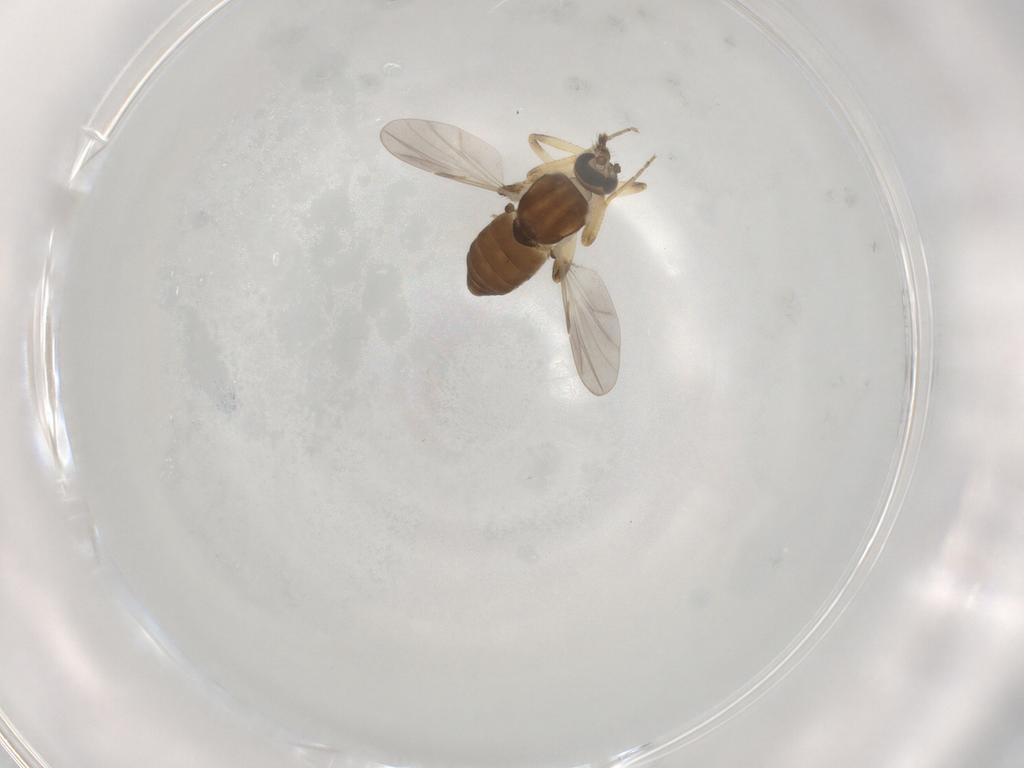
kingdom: Animalia
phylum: Arthropoda
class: Insecta
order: Diptera
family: Ceratopogonidae
